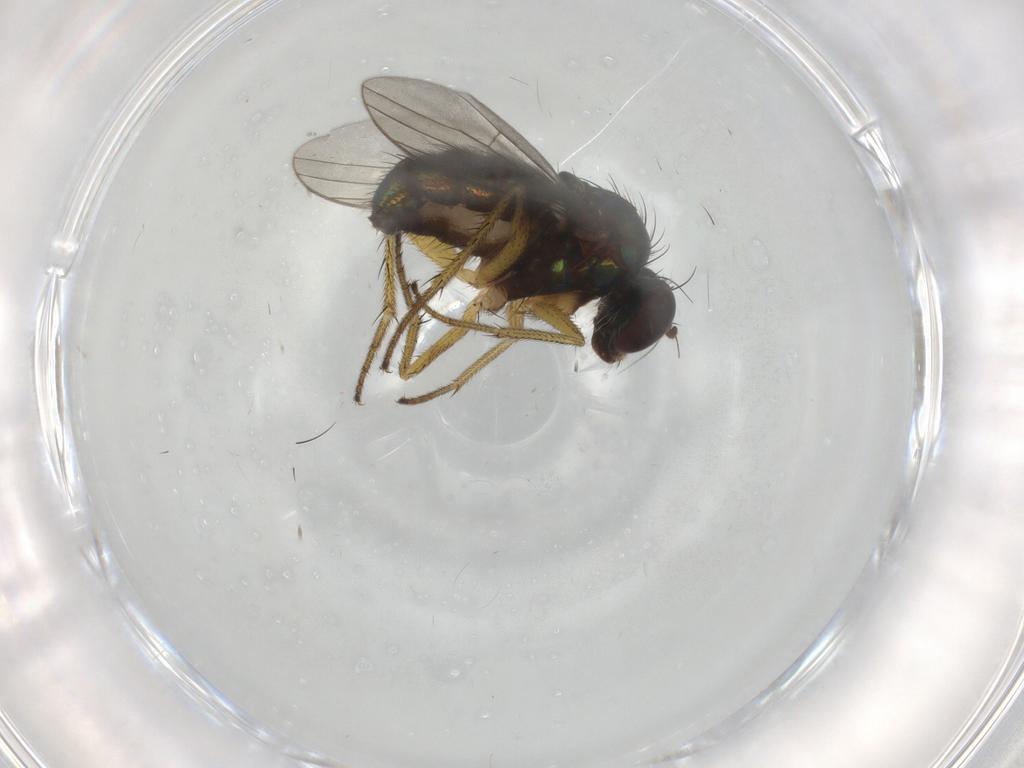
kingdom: Animalia
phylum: Arthropoda
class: Insecta
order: Diptera
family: Dolichopodidae
